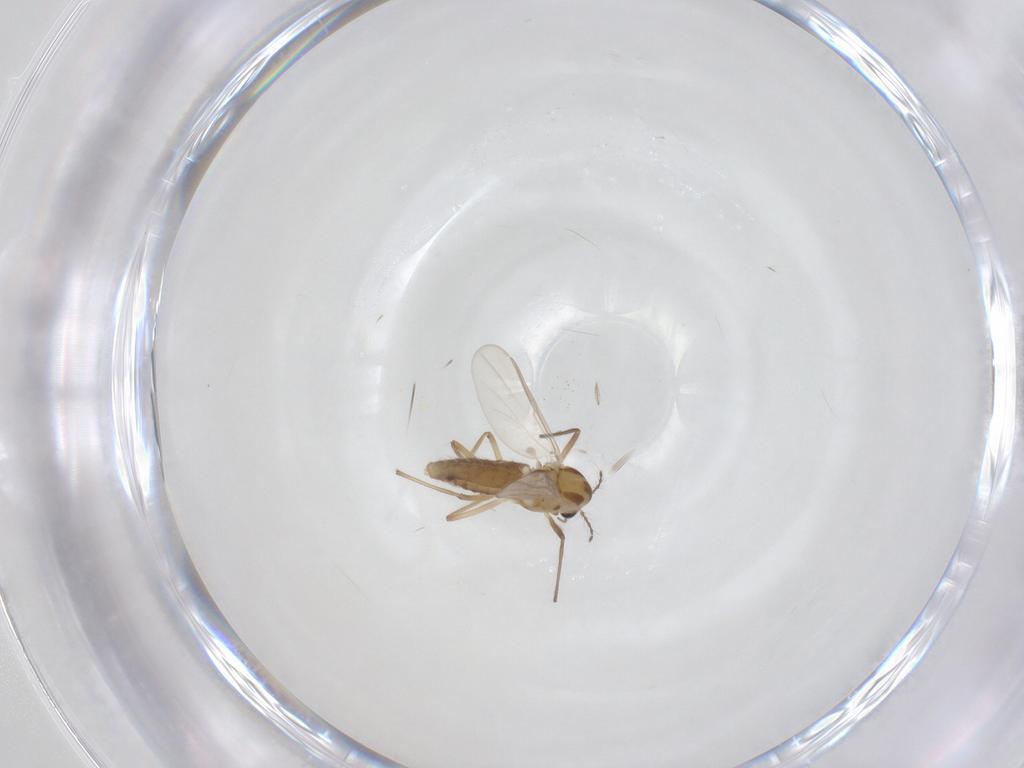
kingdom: Animalia
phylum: Arthropoda
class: Insecta
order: Diptera
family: Chironomidae
